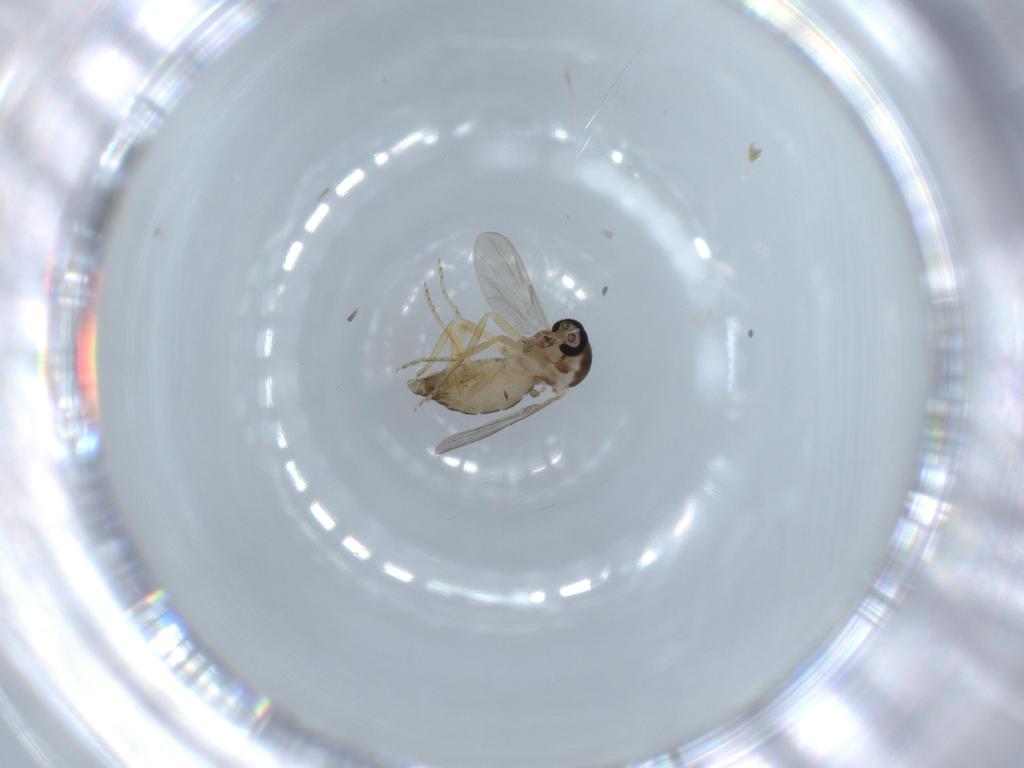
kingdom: Animalia
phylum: Arthropoda
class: Insecta
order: Diptera
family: Ceratopogonidae
